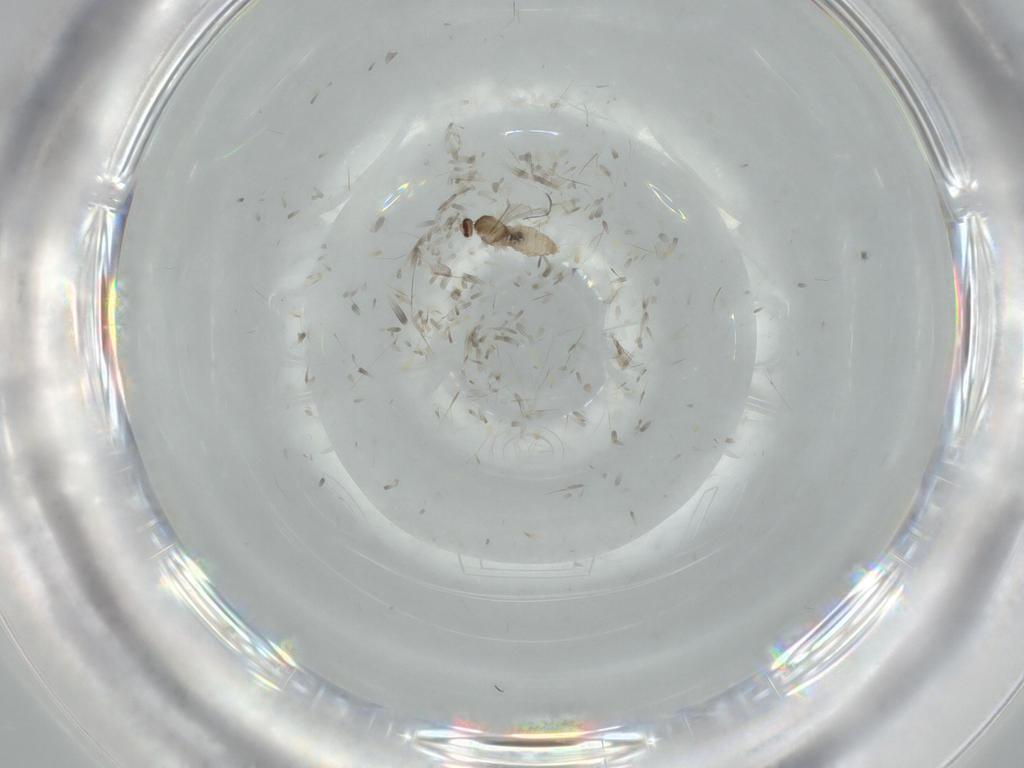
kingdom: Animalia
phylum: Arthropoda
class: Insecta
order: Diptera
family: Cecidomyiidae
